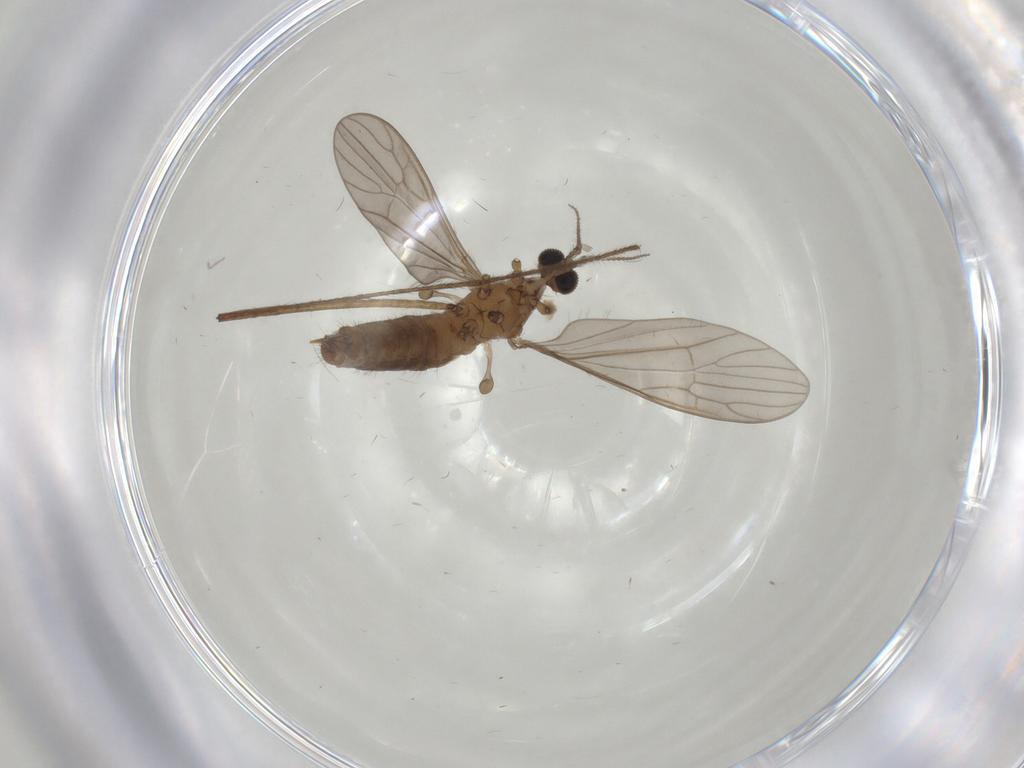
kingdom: Animalia
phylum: Arthropoda
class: Insecta
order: Diptera
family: Limoniidae
